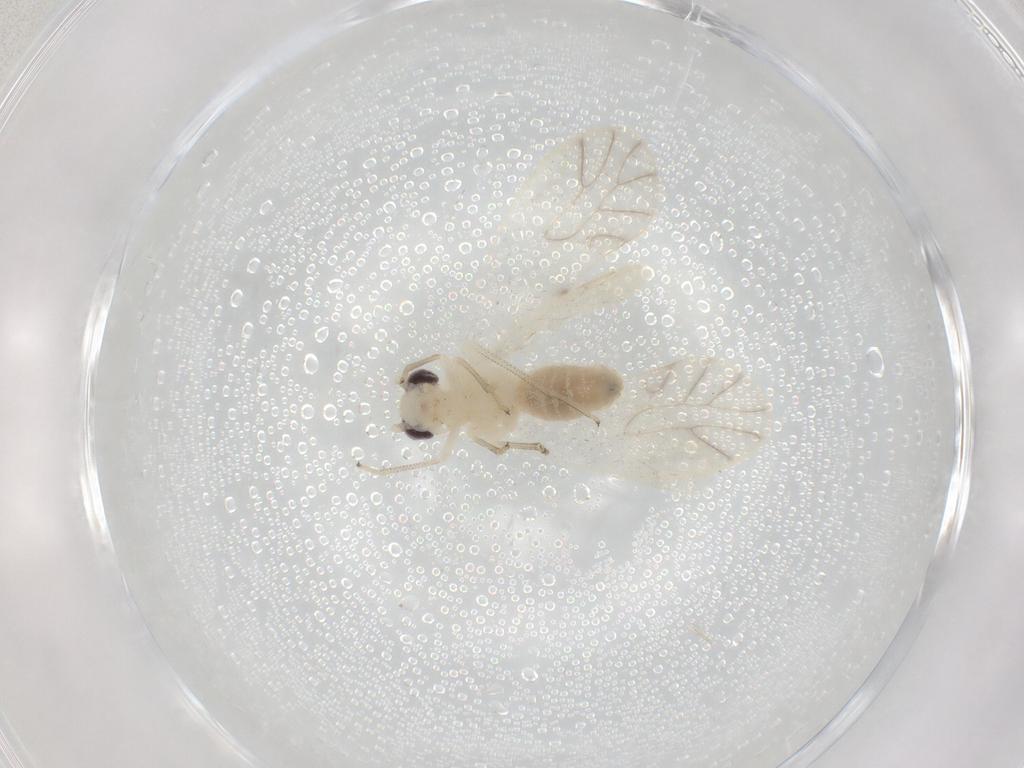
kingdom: Animalia
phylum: Arthropoda
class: Insecta
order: Psocodea
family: Caeciliusidae
